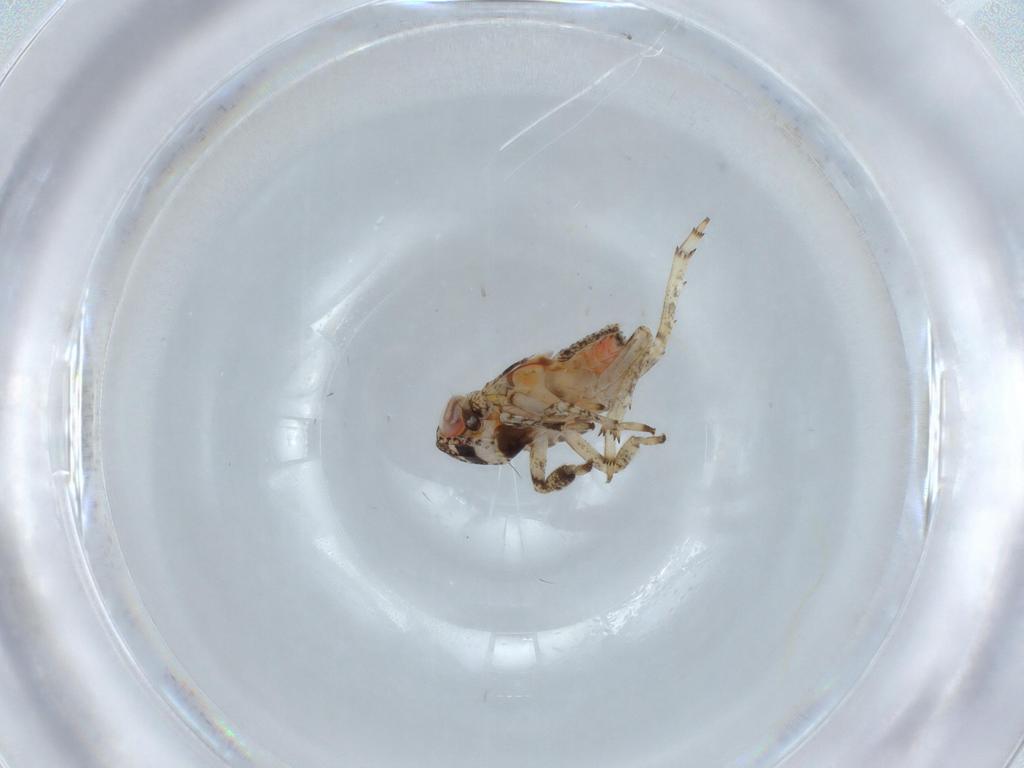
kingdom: Animalia
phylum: Arthropoda
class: Insecta
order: Hemiptera
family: Issidae
